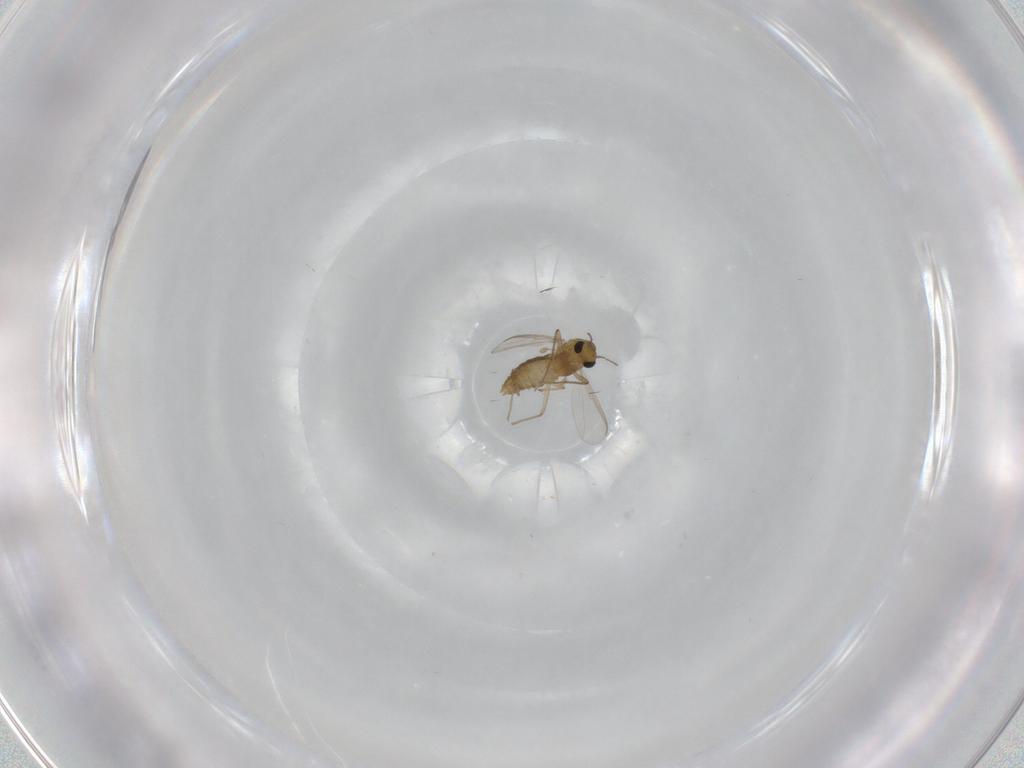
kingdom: Animalia
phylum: Arthropoda
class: Insecta
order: Diptera
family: Chironomidae
